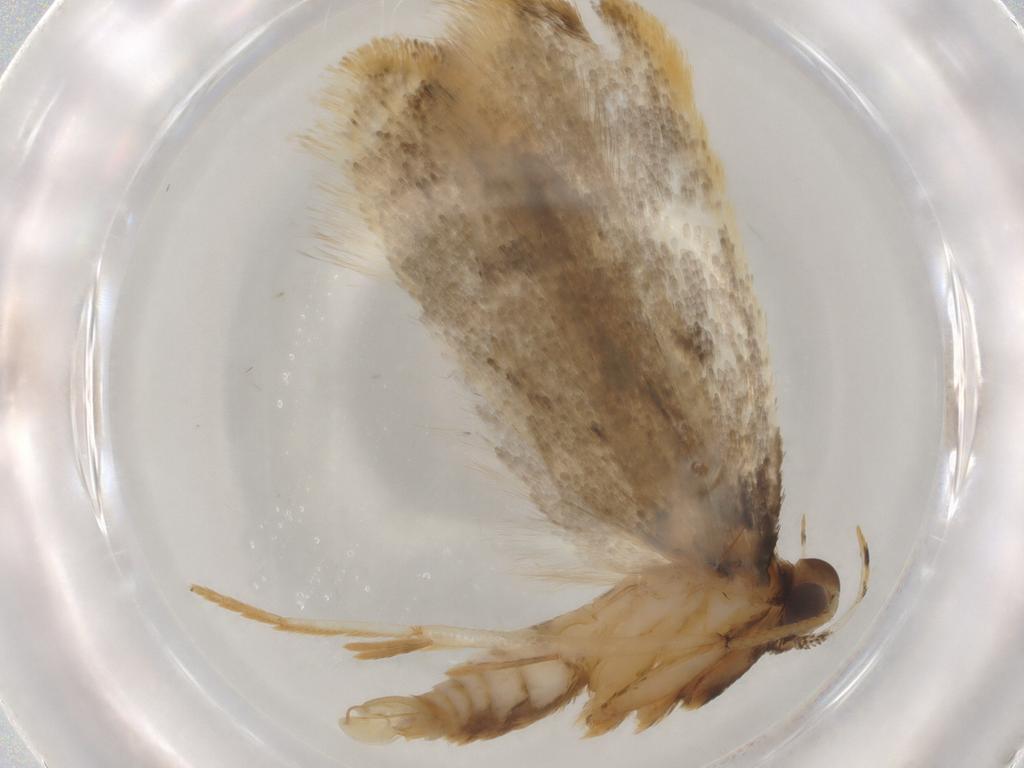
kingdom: Animalia
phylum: Arthropoda
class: Insecta
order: Lepidoptera
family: Gelechiidae
